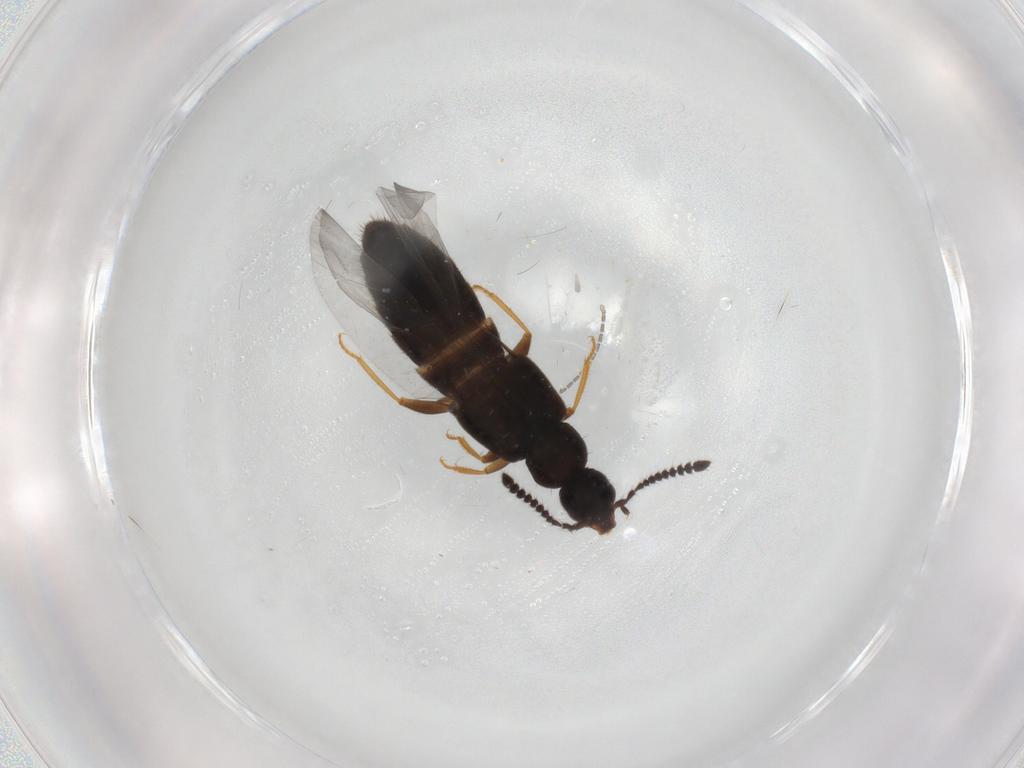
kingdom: Animalia
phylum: Arthropoda
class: Insecta
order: Coleoptera
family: Staphylinidae
